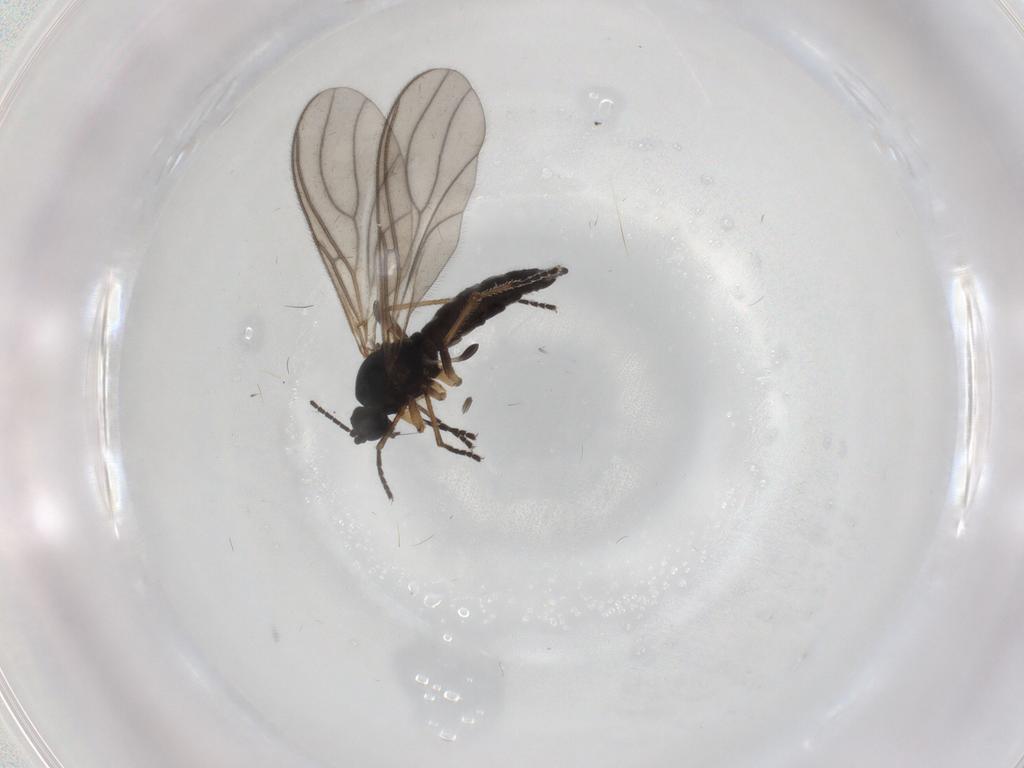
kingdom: Animalia
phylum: Arthropoda
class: Insecta
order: Diptera
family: Sciaridae
